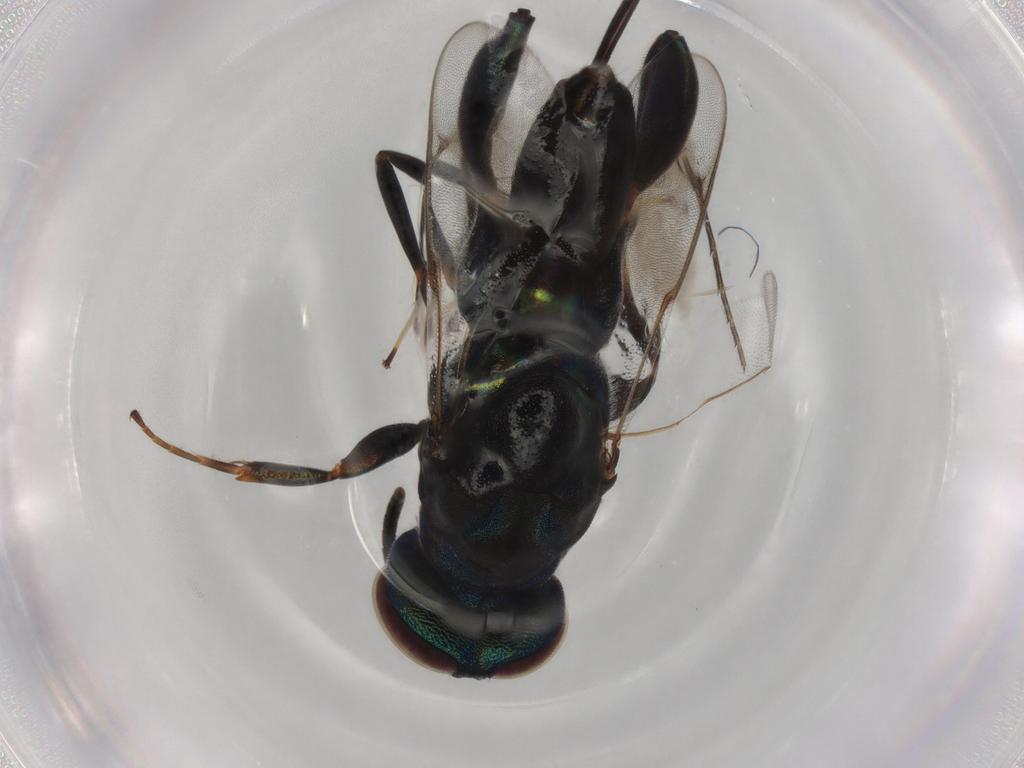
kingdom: Animalia
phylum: Arthropoda
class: Insecta
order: Hymenoptera
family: Eupelmidae
